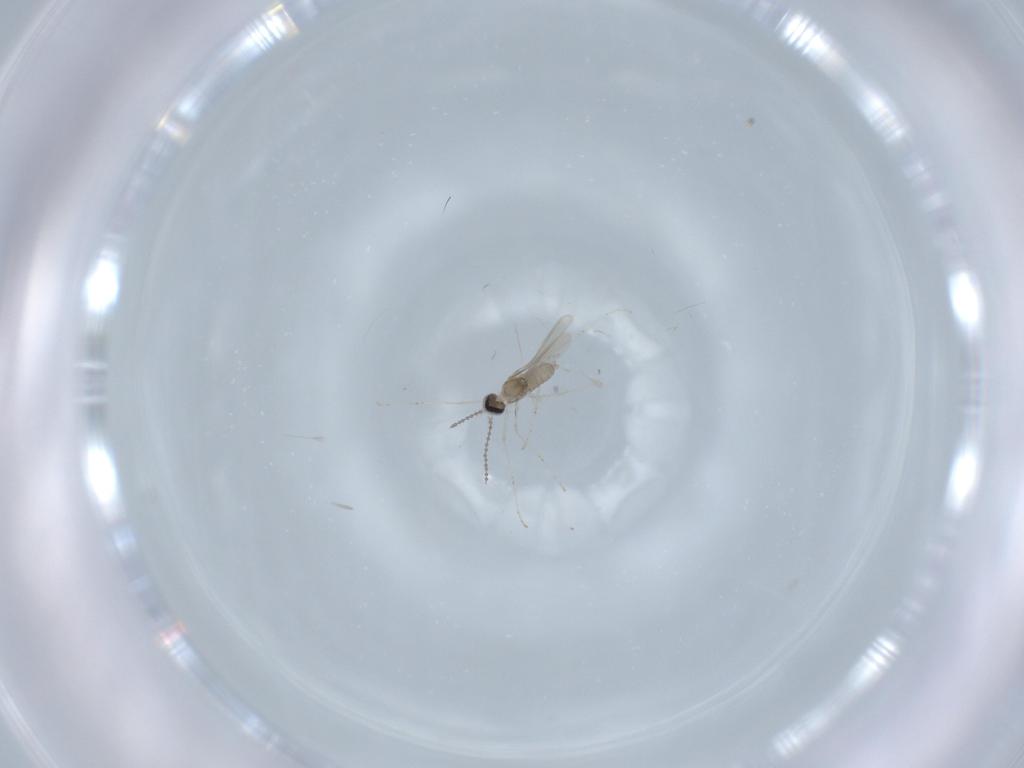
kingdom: Animalia
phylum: Arthropoda
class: Insecta
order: Diptera
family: Cecidomyiidae
